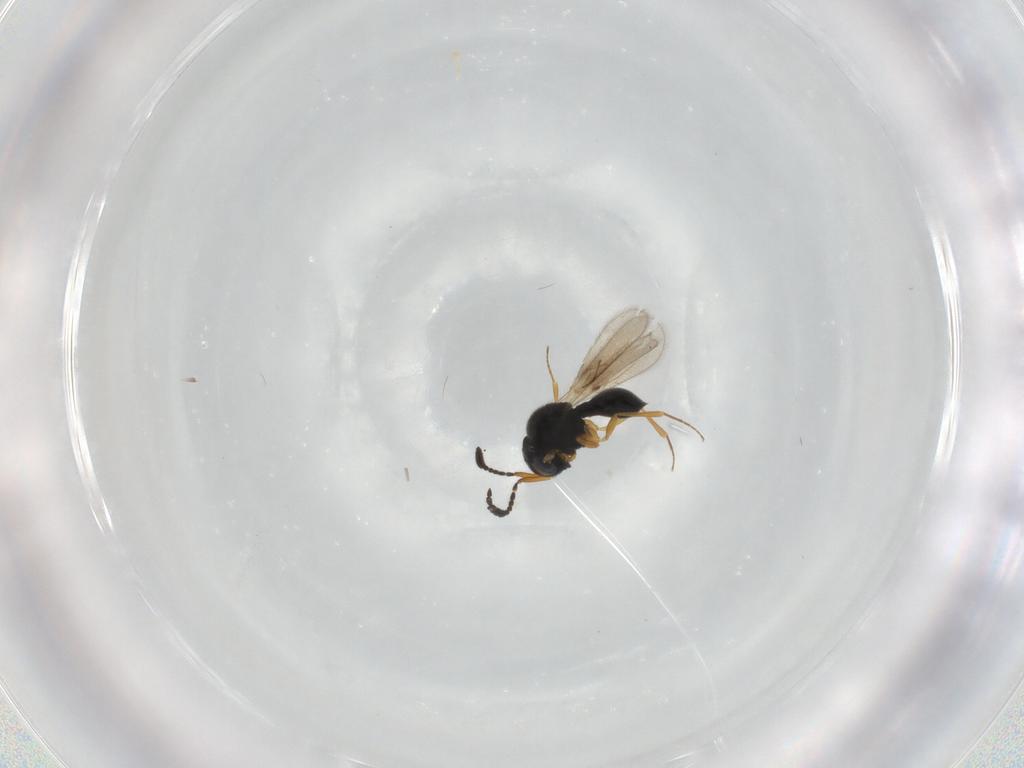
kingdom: Animalia
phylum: Arthropoda
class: Insecta
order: Hymenoptera
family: Scelionidae
